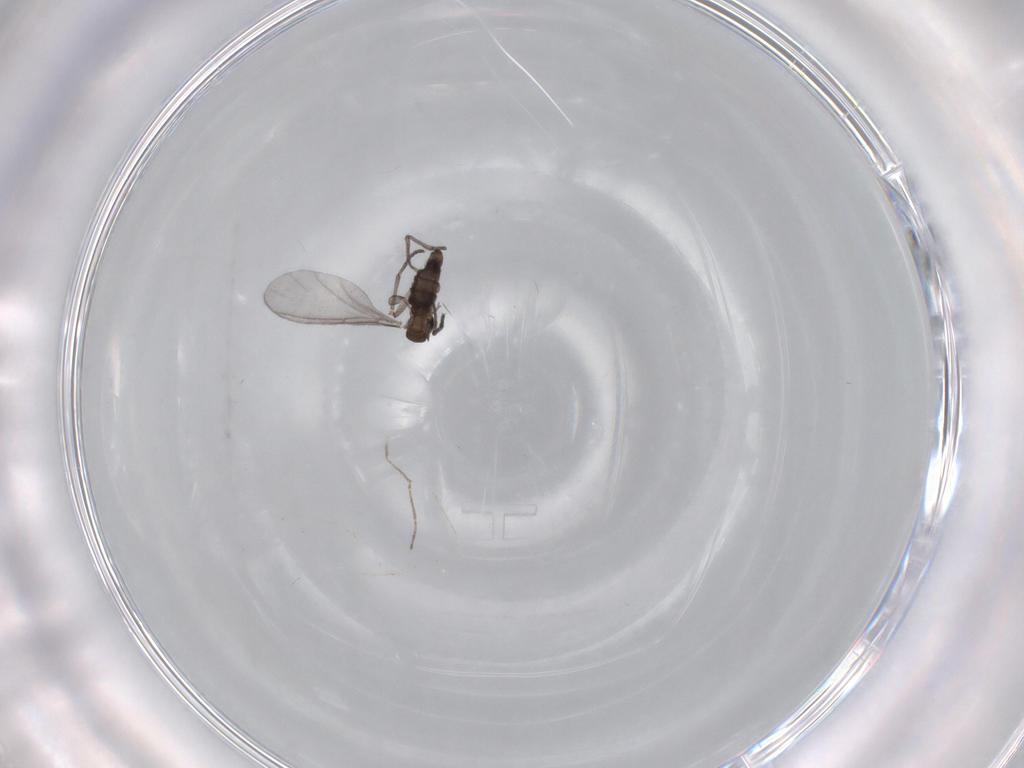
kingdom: Animalia
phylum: Arthropoda
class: Insecta
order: Diptera
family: Sciaridae
